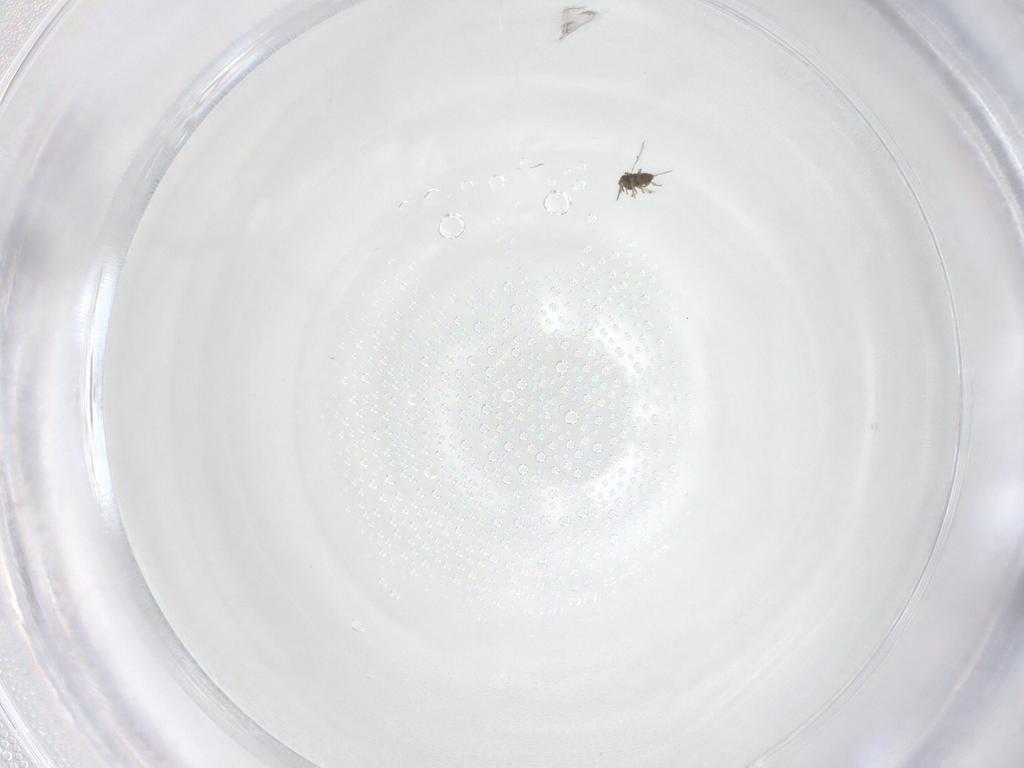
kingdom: Animalia
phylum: Arthropoda
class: Insecta
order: Hymenoptera
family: Trichogrammatidae
